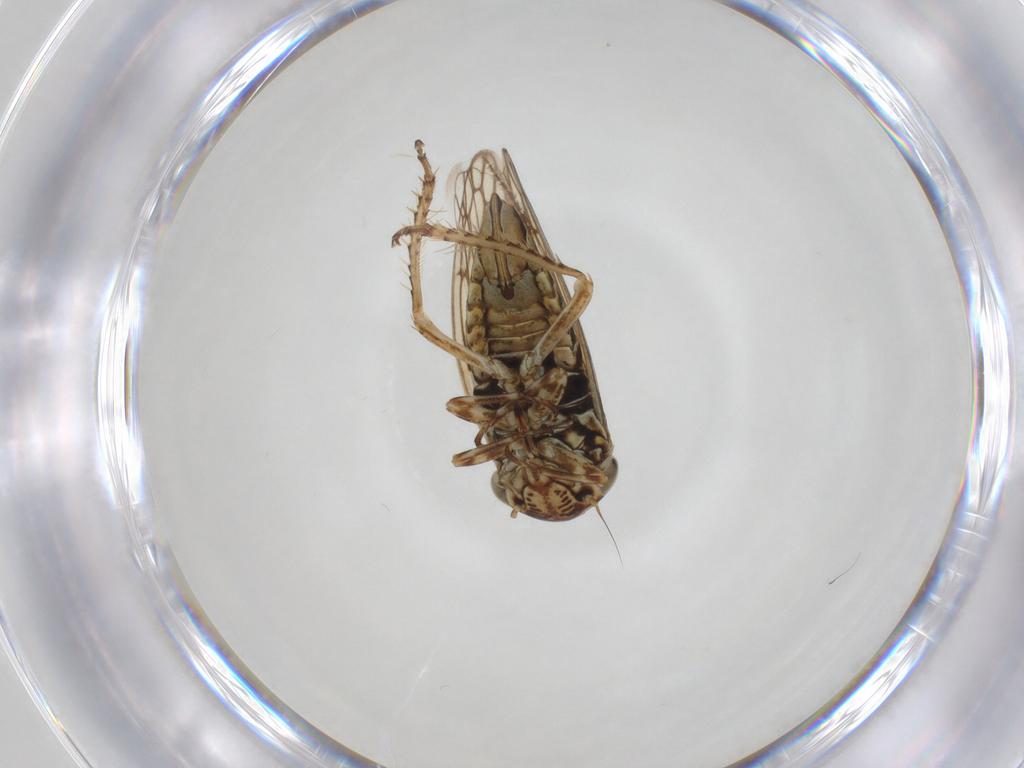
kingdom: Animalia
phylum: Arthropoda
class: Insecta
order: Hemiptera
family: Cicadellidae
